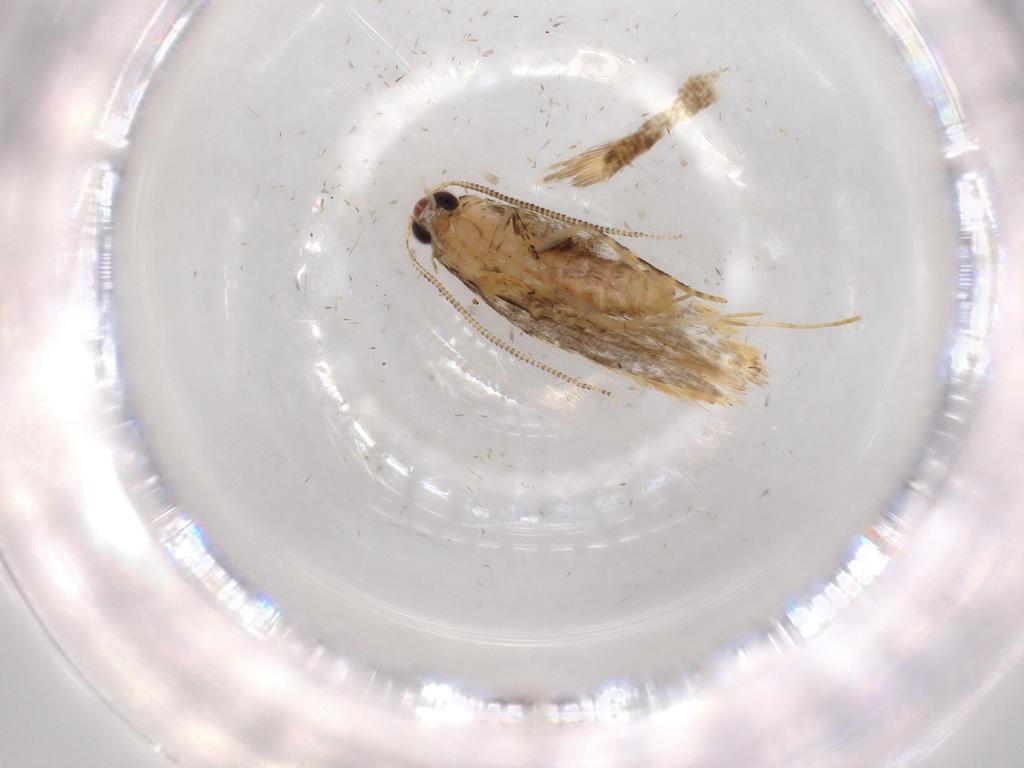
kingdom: Animalia
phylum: Arthropoda
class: Insecta
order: Lepidoptera
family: Tineidae
